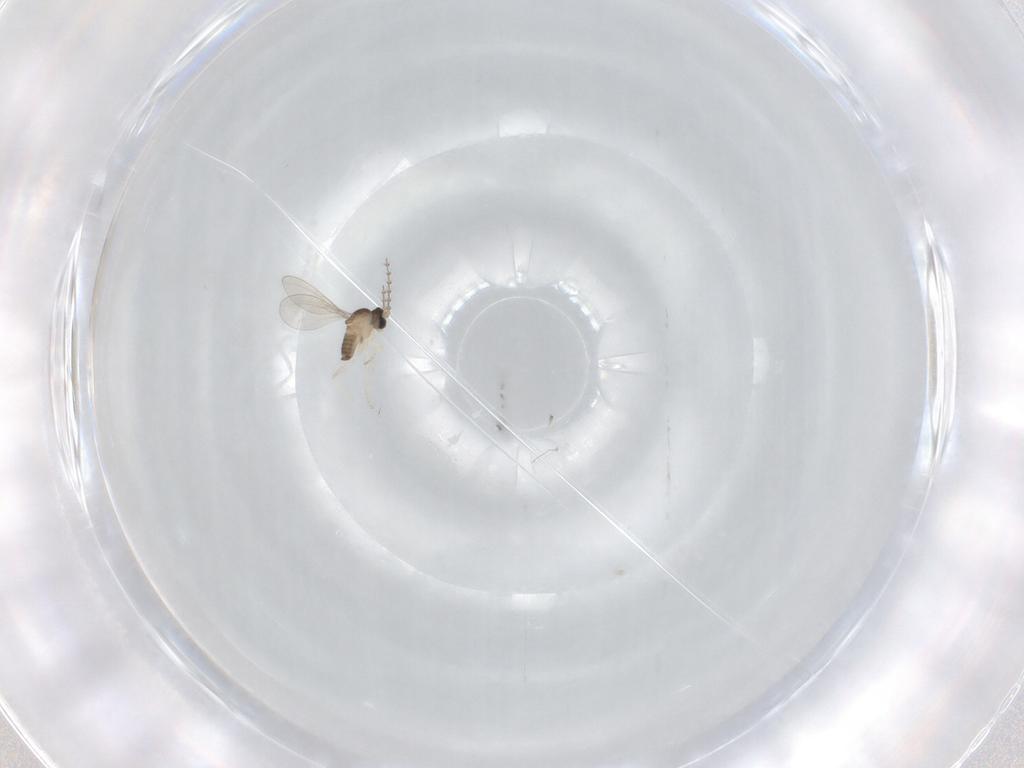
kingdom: Animalia
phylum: Arthropoda
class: Insecta
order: Diptera
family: Cecidomyiidae
